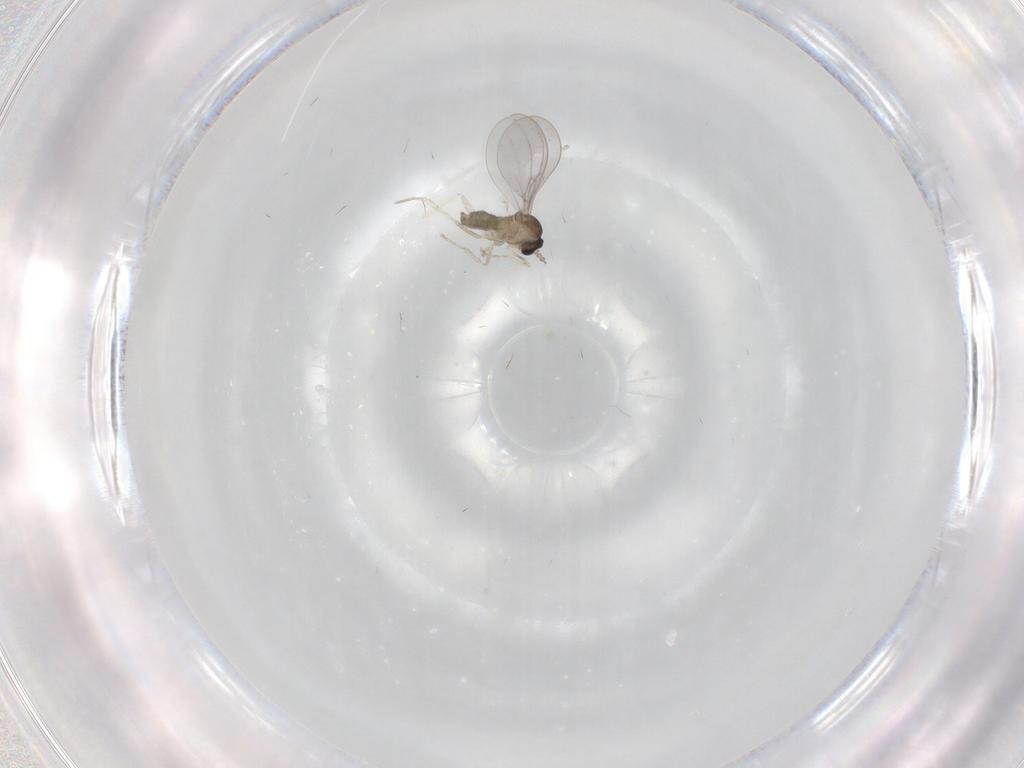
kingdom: Animalia
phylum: Arthropoda
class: Insecta
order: Diptera
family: Cecidomyiidae
